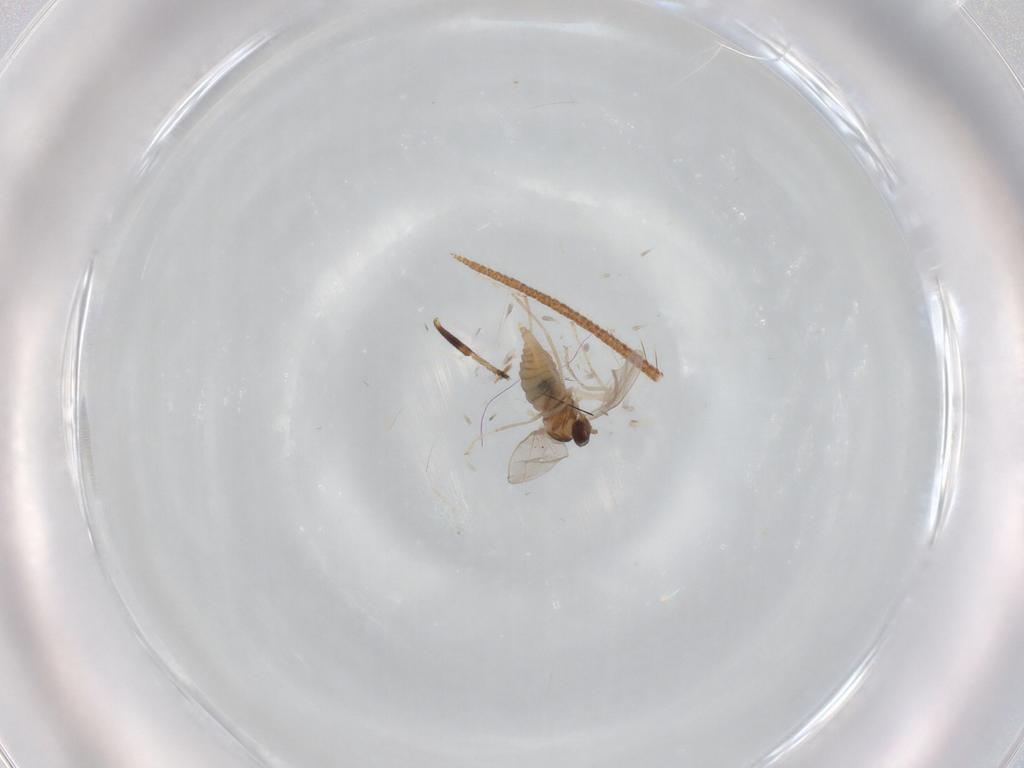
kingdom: Animalia
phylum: Arthropoda
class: Insecta
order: Diptera
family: Cecidomyiidae
